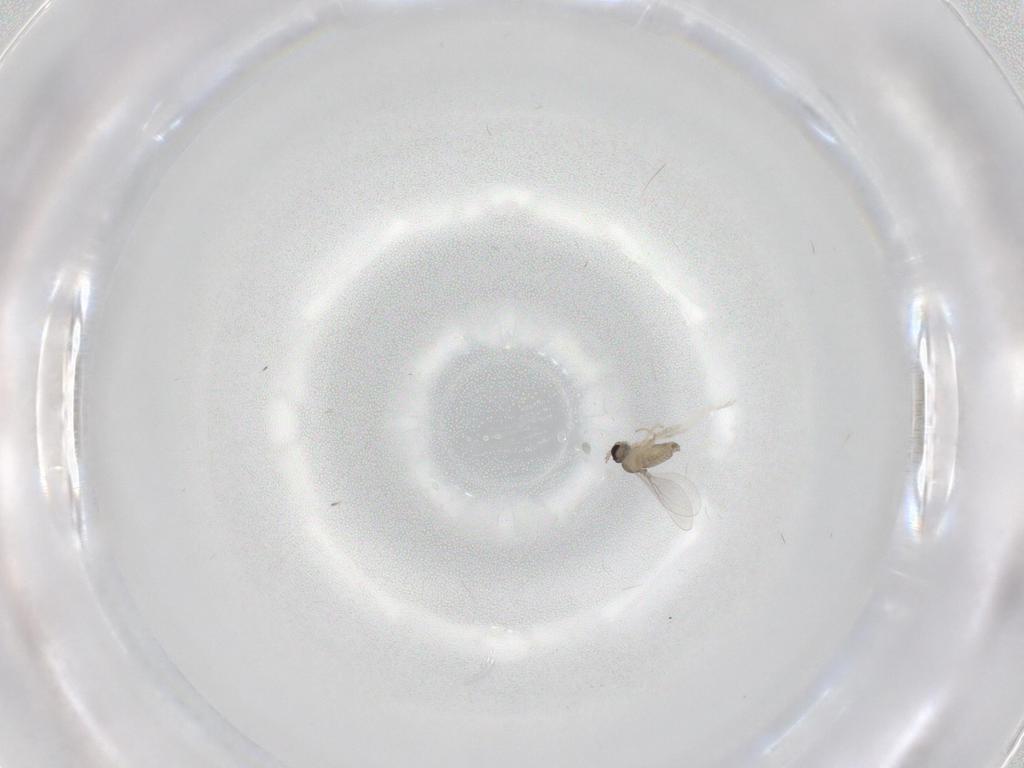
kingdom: Animalia
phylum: Arthropoda
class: Insecta
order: Diptera
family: Cecidomyiidae
